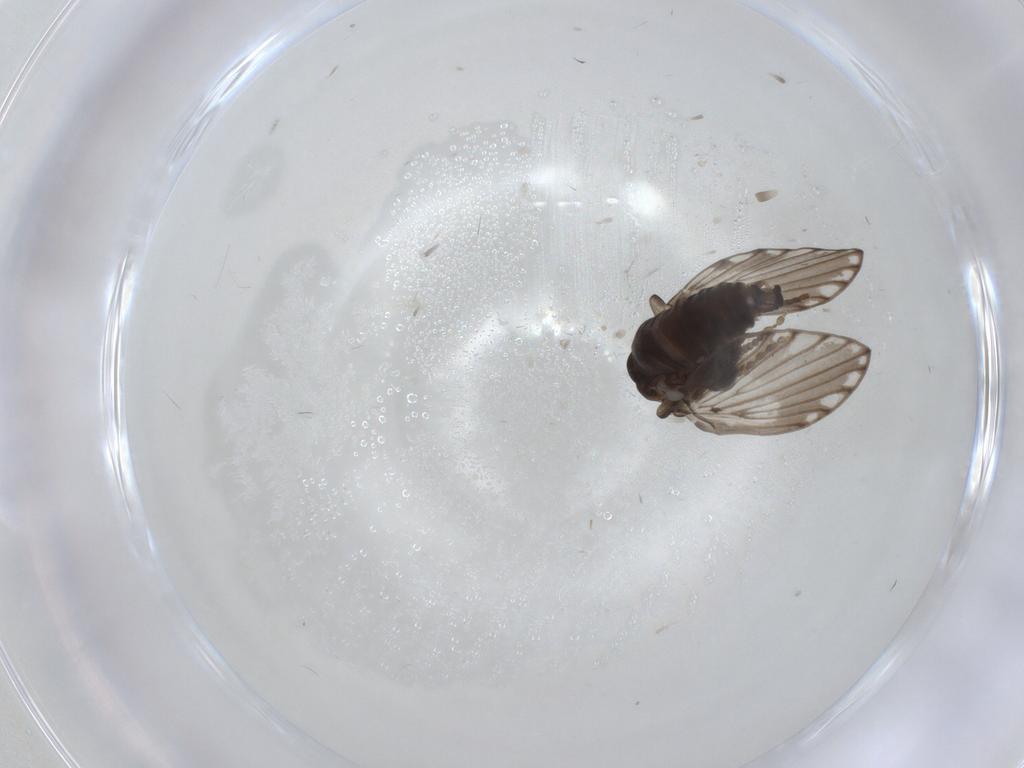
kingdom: Animalia
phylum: Arthropoda
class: Insecta
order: Diptera
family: Psychodidae
